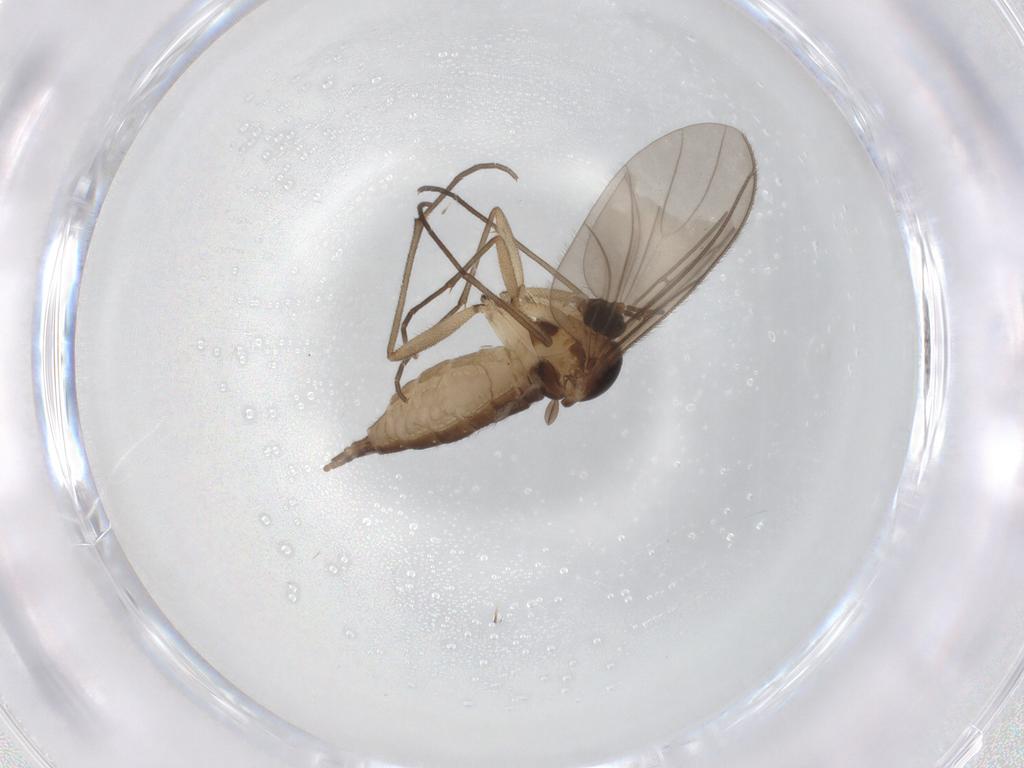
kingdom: Animalia
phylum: Arthropoda
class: Insecta
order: Diptera
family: Sciaridae
